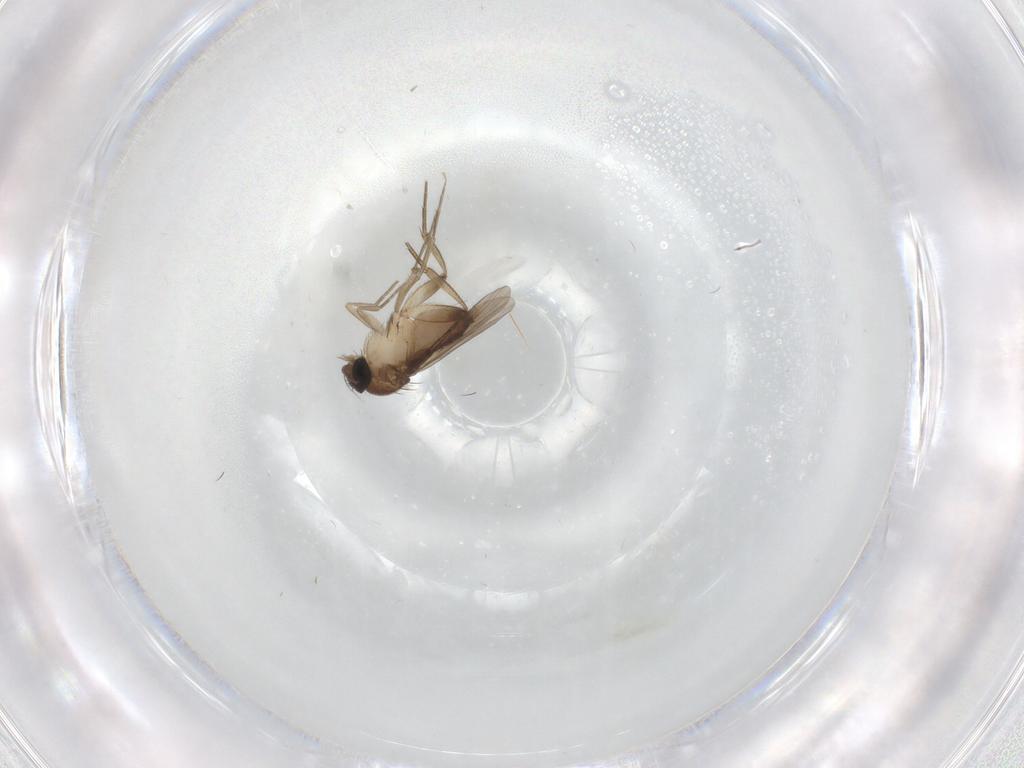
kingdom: Animalia
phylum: Arthropoda
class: Insecta
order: Diptera
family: Phoridae
